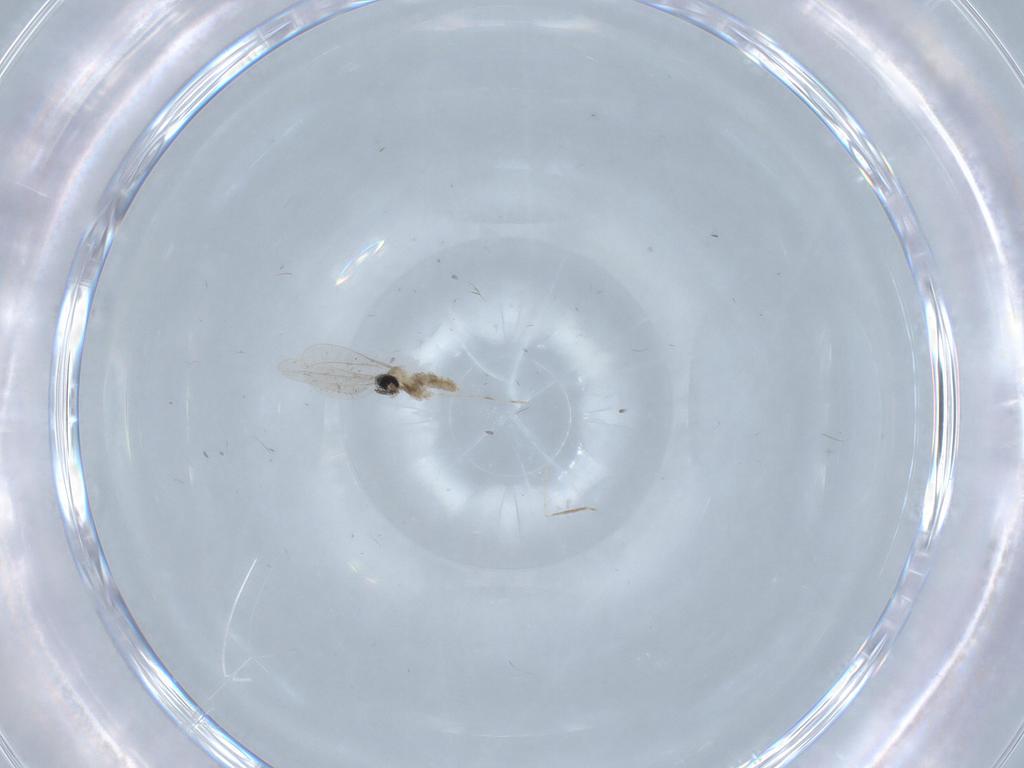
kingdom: Animalia
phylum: Arthropoda
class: Insecta
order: Diptera
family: Cecidomyiidae
